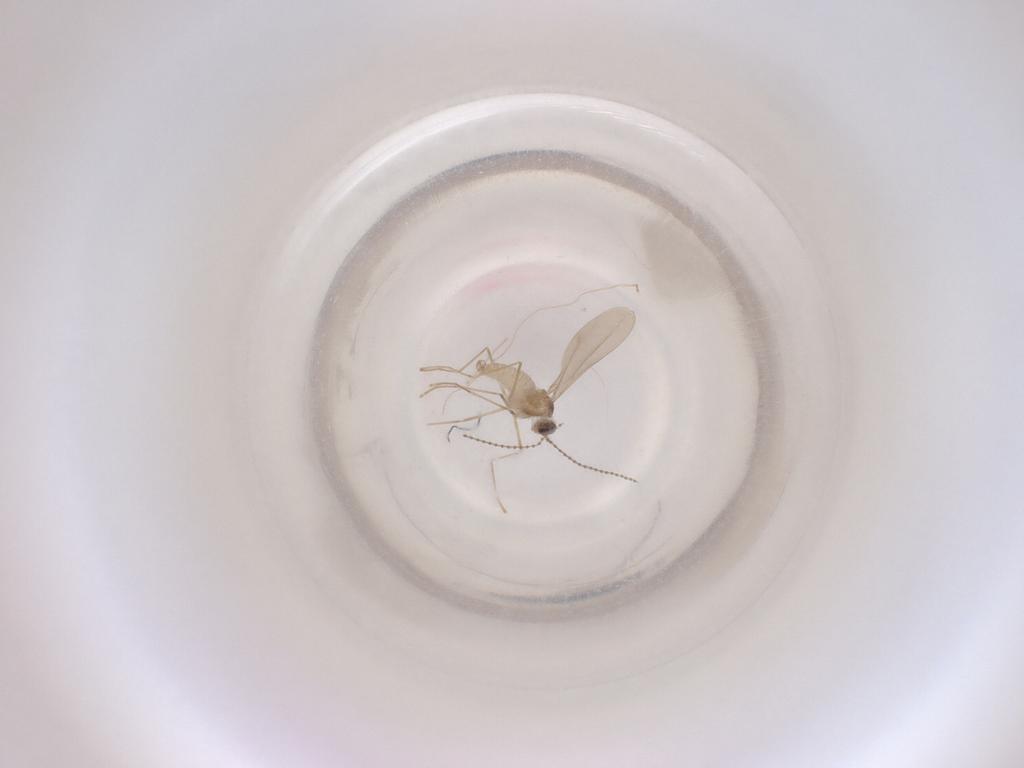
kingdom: Animalia
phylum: Arthropoda
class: Insecta
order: Diptera
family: Cecidomyiidae
